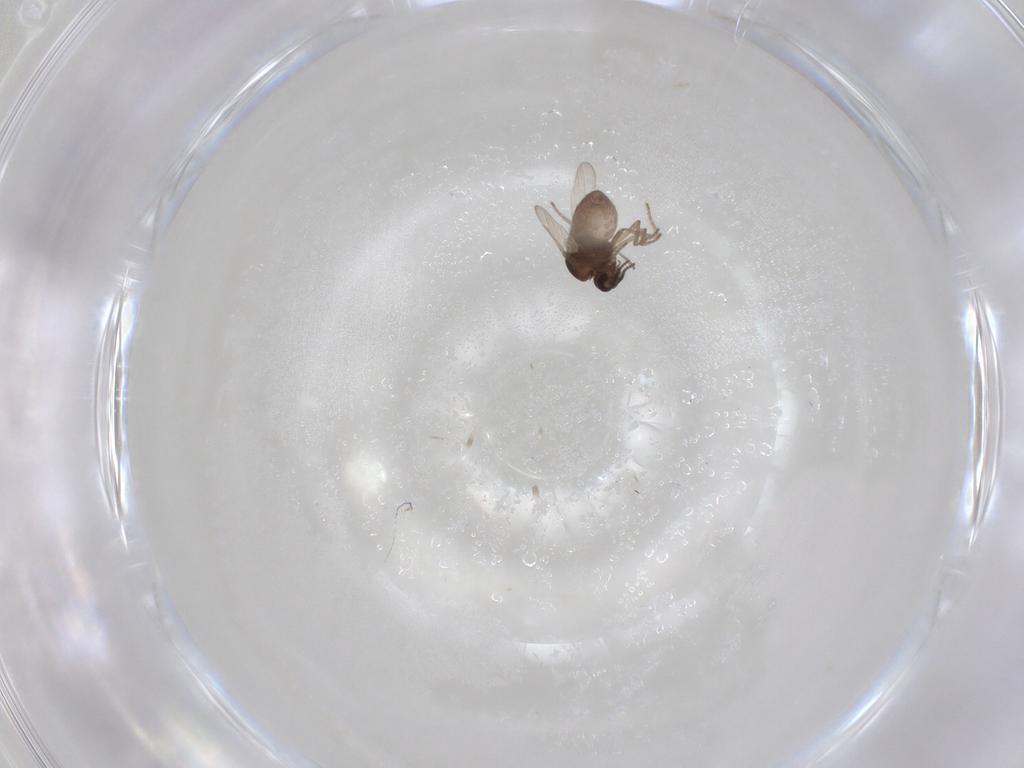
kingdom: Animalia
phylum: Arthropoda
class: Insecta
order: Diptera
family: Ceratopogonidae
